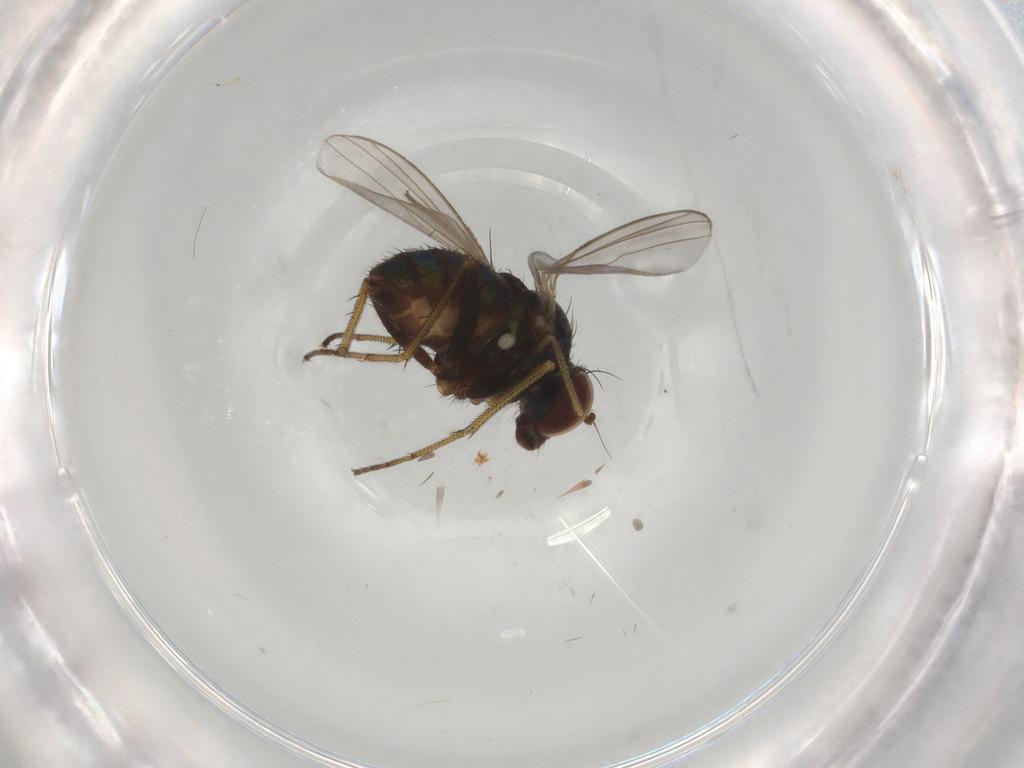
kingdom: Animalia
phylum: Arthropoda
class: Insecta
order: Diptera
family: Dolichopodidae
